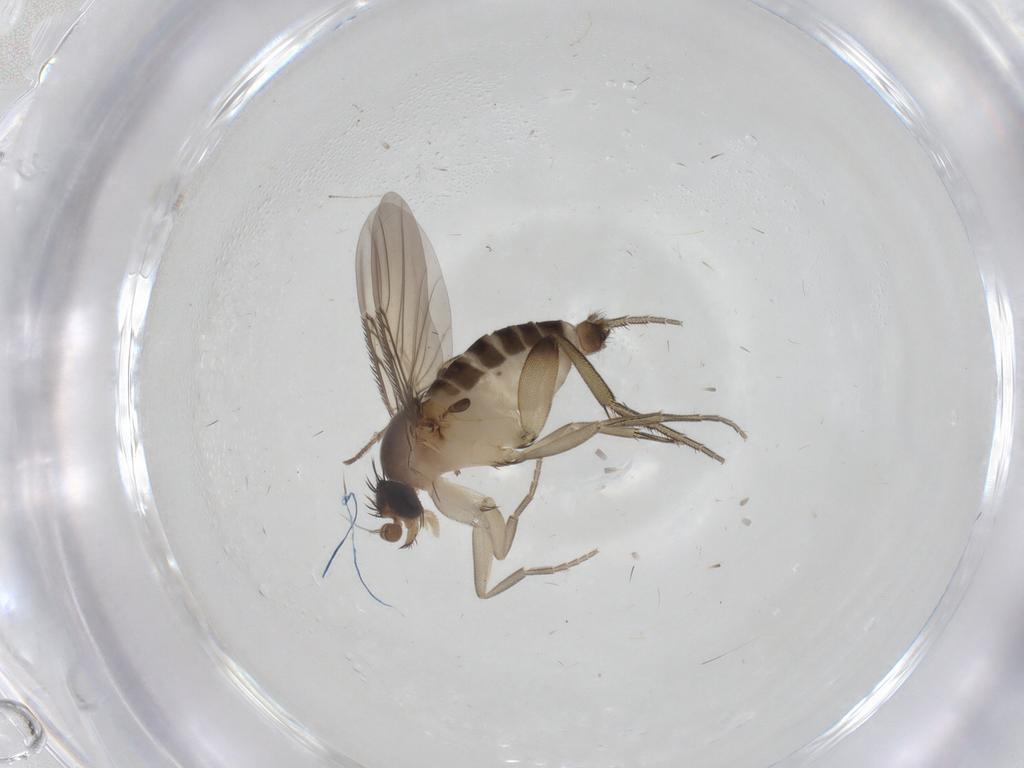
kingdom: Animalia
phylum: Arthropoda
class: Insecta
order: Diptera
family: Phoridae
